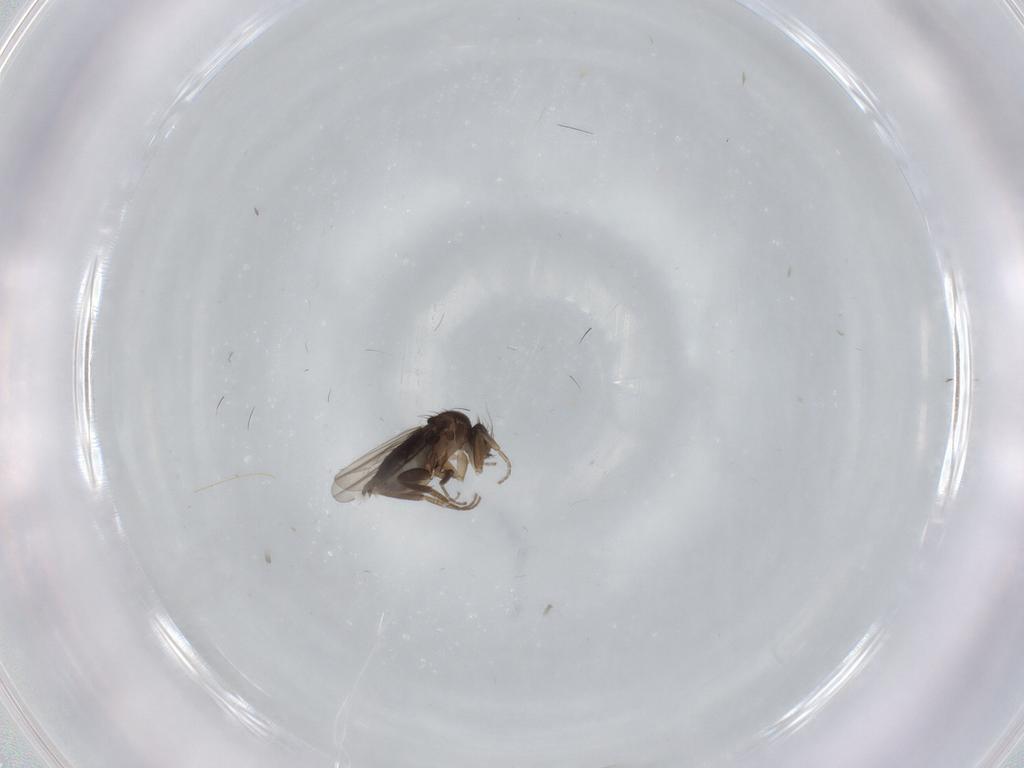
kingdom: Animalia
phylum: Arthropoda
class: Insecta
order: Diptera
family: Phoridae
